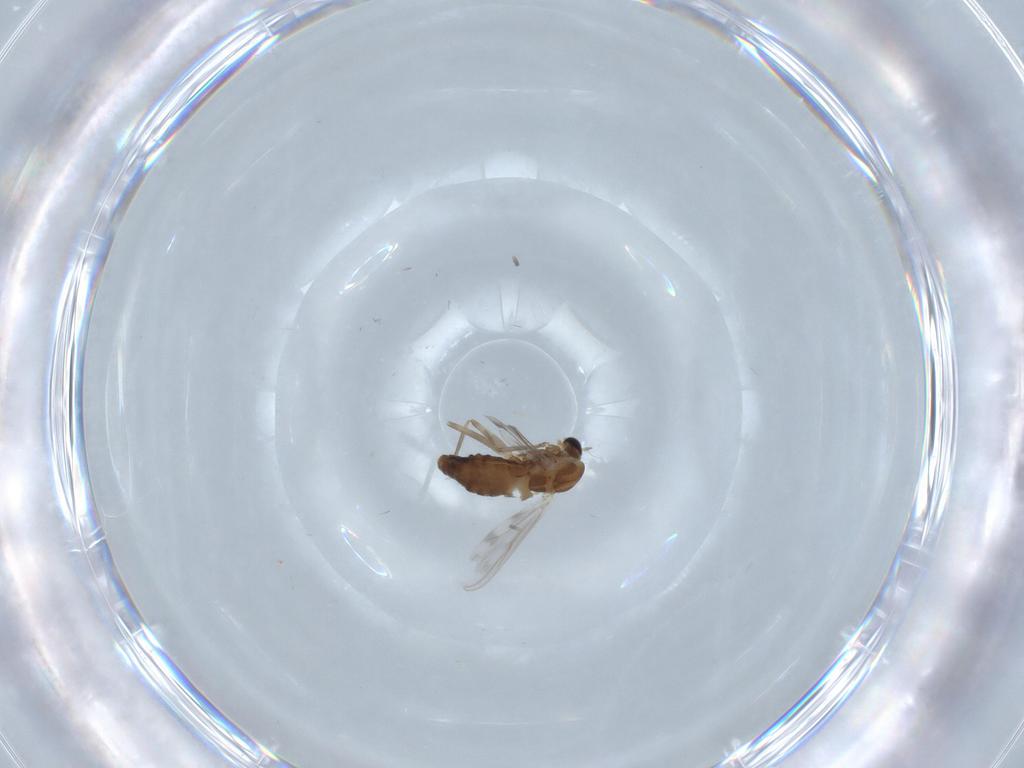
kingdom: Animalia
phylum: Arthropoda
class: Insecta
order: Diptera
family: Chironomidae
